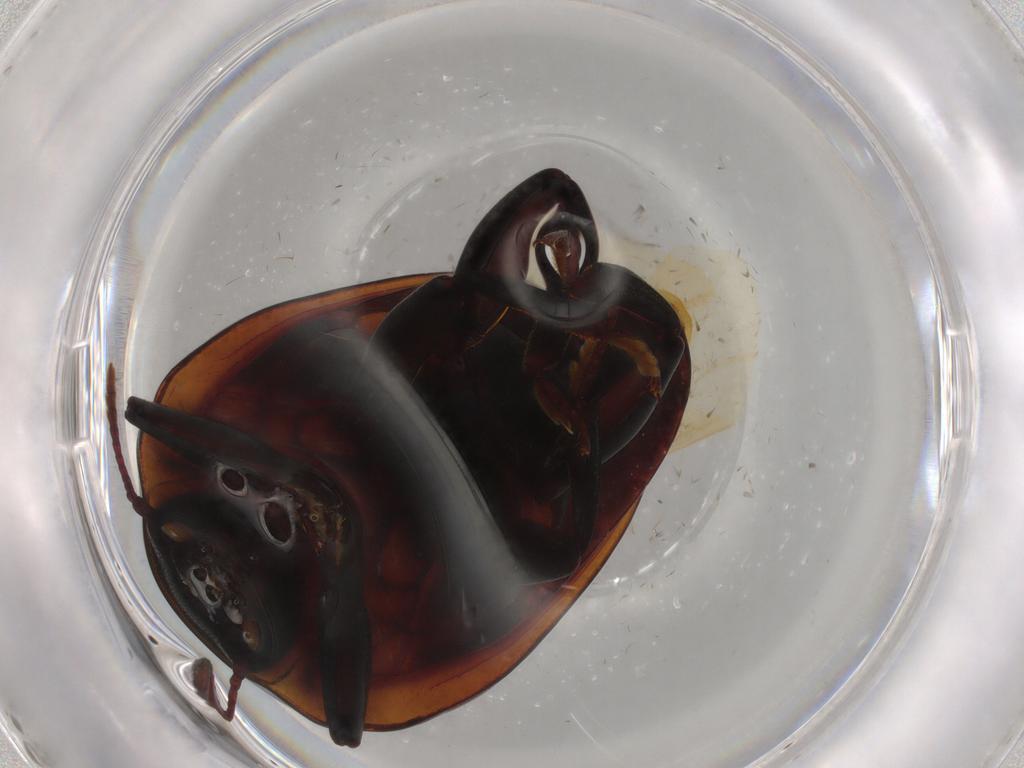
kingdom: Animalia
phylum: Arthropoda
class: Insecta
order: Coleoptera
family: Zopheridae
